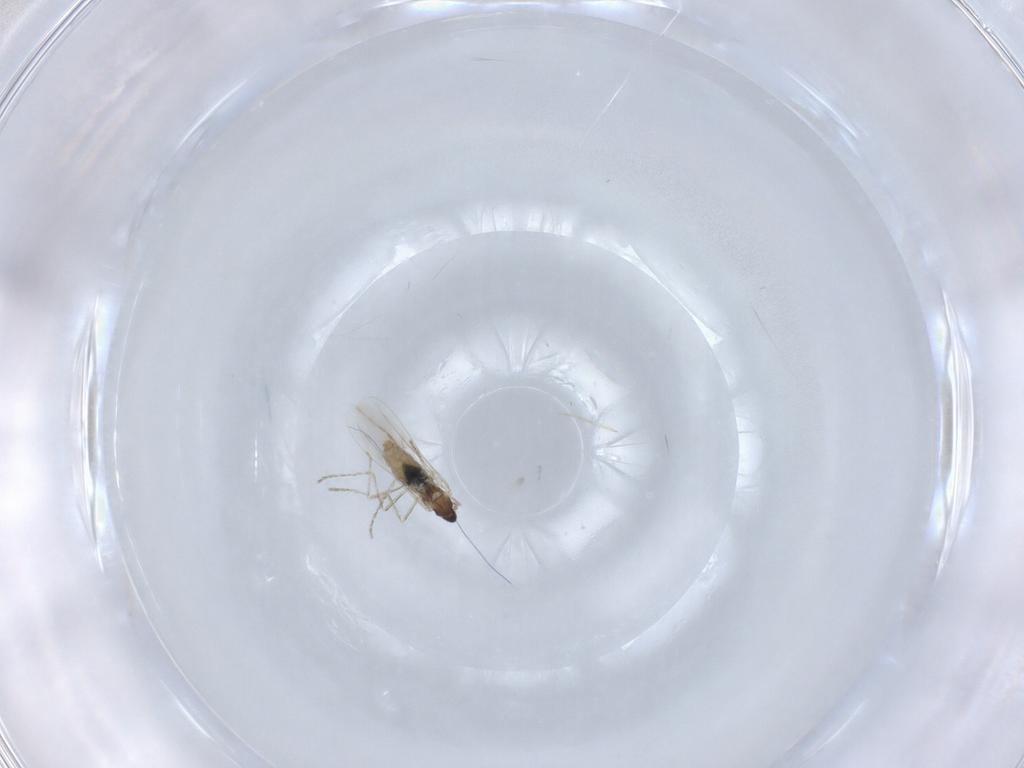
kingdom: Animalia
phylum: Arthropoda
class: Insecta
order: Diptera
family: Cecidomyiidae
